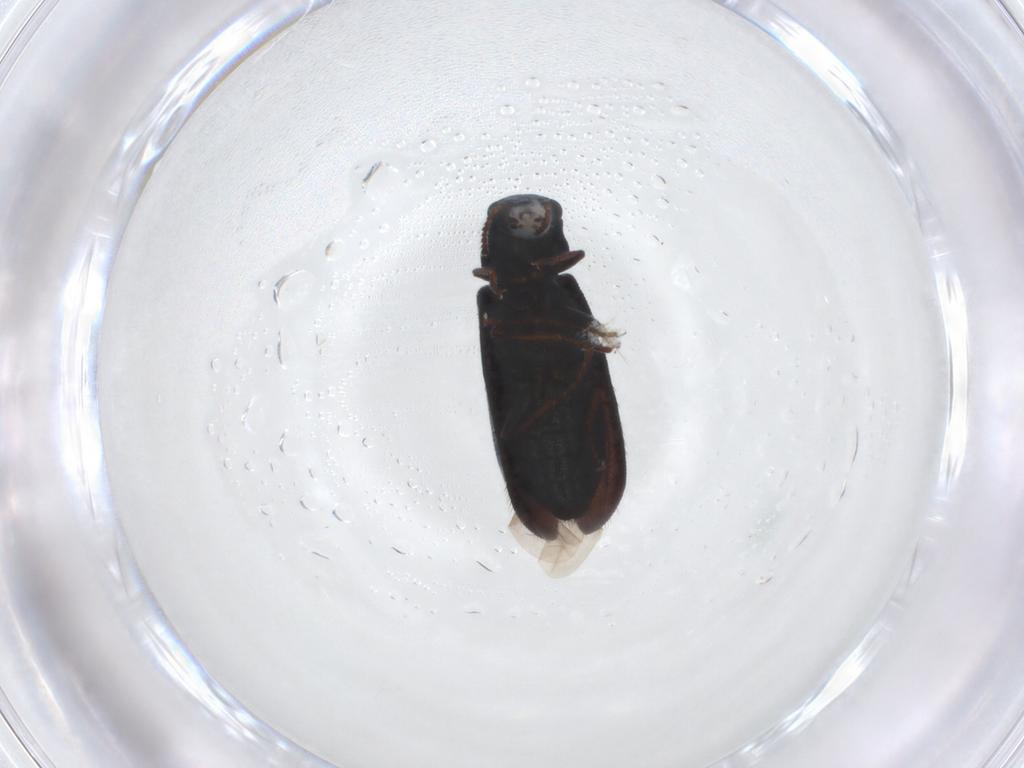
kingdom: Animalia
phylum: Arthropoda
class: Insecta
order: Coleoptera
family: Melyridae
